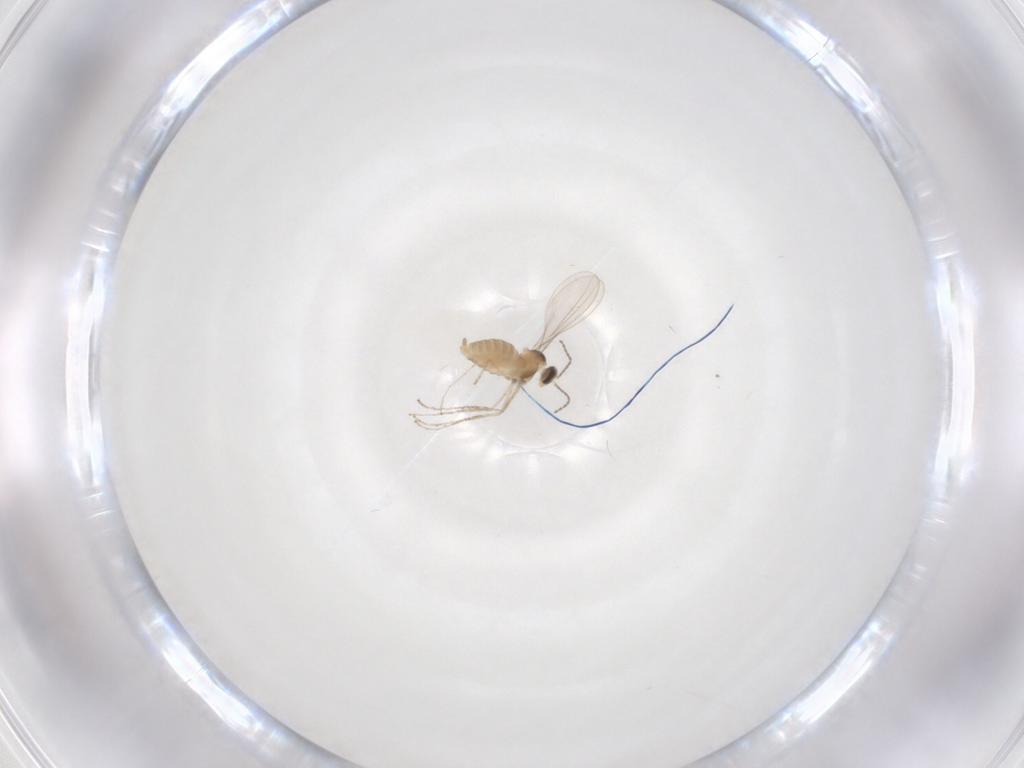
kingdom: Animalia
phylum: Arthropoda
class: Insecta
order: Diptera
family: Cecidomyiidae
